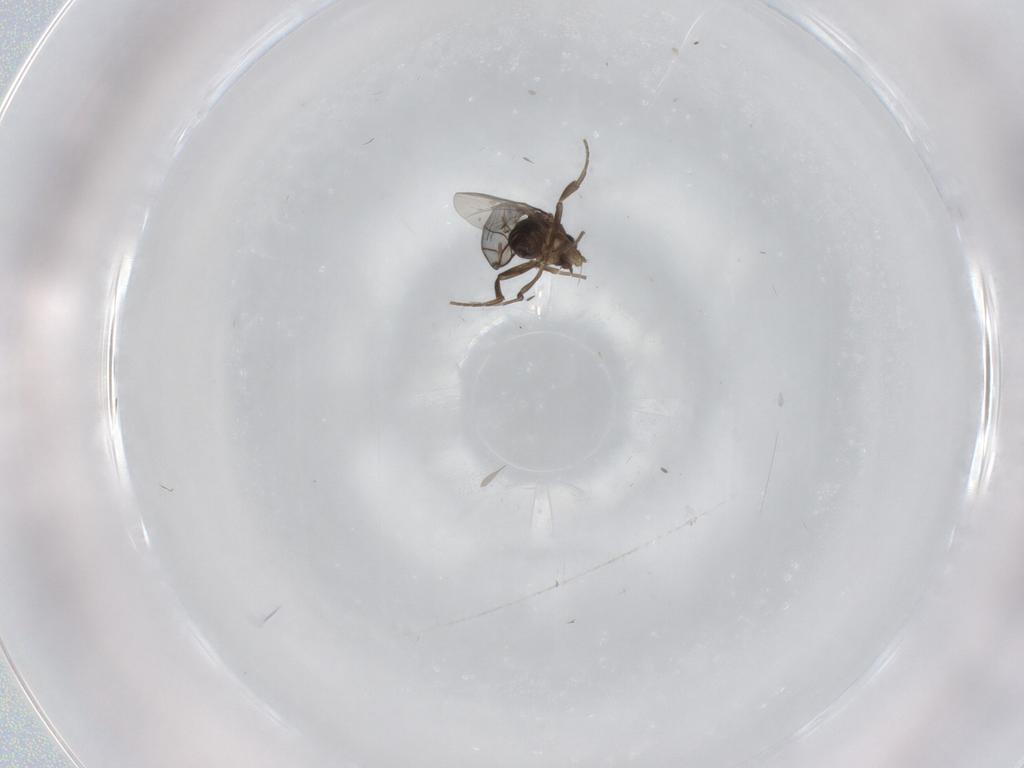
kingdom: Animalia
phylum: Arthropoda
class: Insecta
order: Diptera
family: Phoridae
